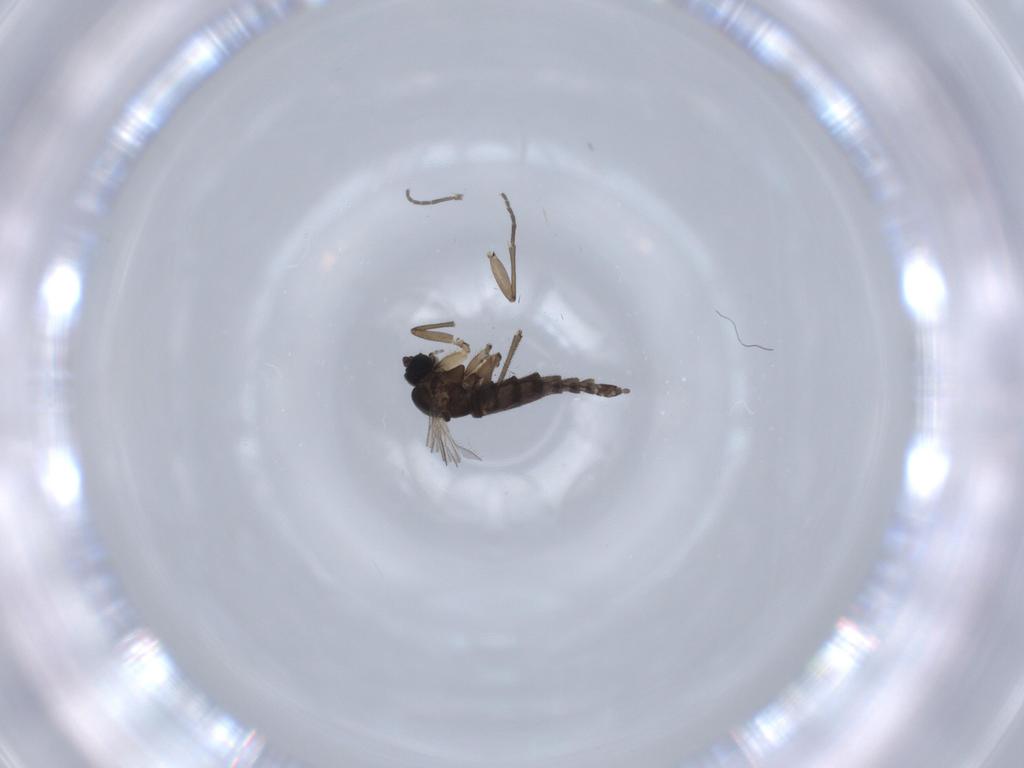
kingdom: Animalia
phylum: Arthropoda
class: Insecta
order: Diptera
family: Sciaridae
